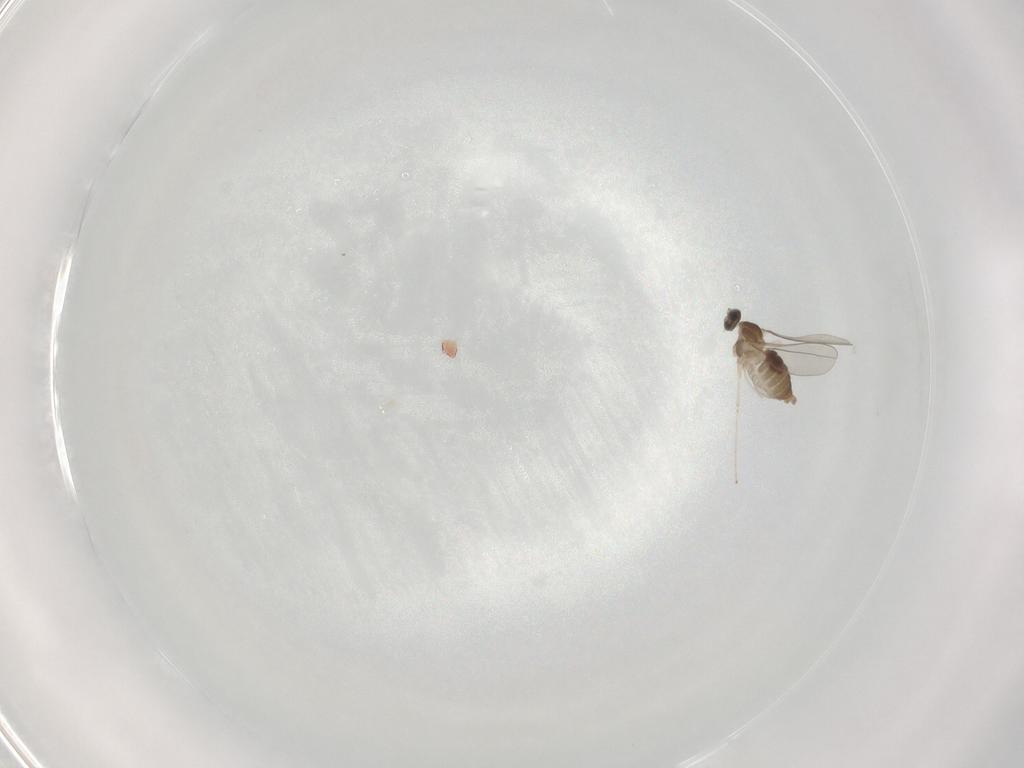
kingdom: Animalia
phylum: Arthropoda
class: Insecta
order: Diptera
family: Cecidomyiidae
